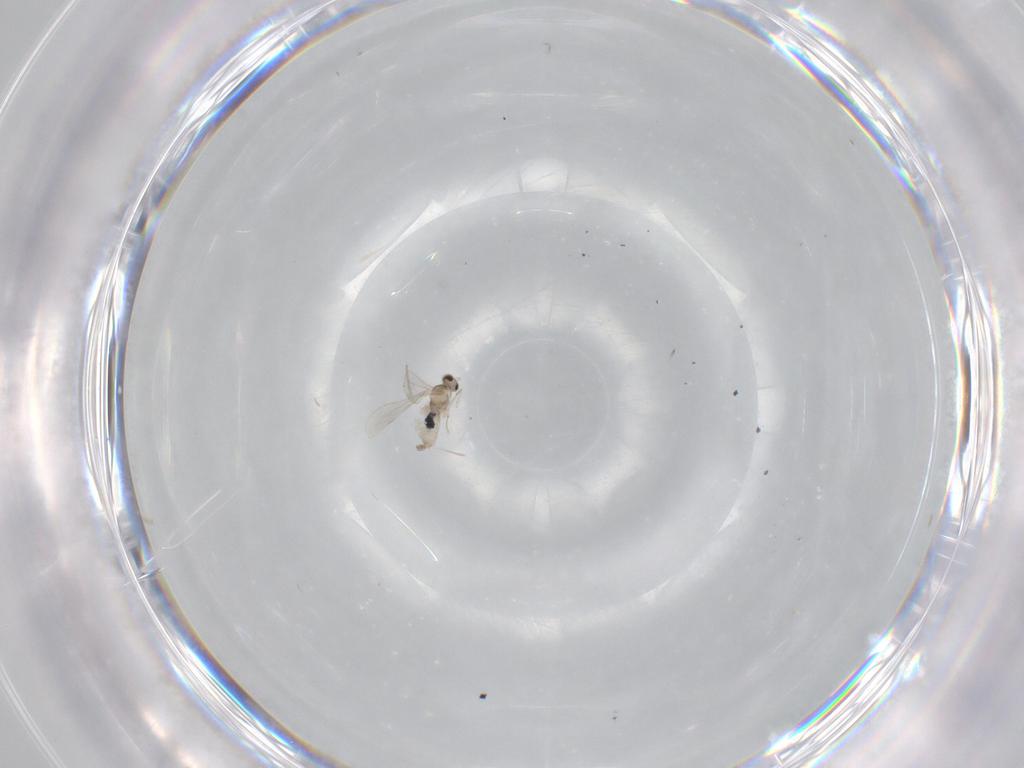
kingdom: Animalia
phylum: Arthropoda
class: Insecta
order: Diptera
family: Cecidomyiidae
